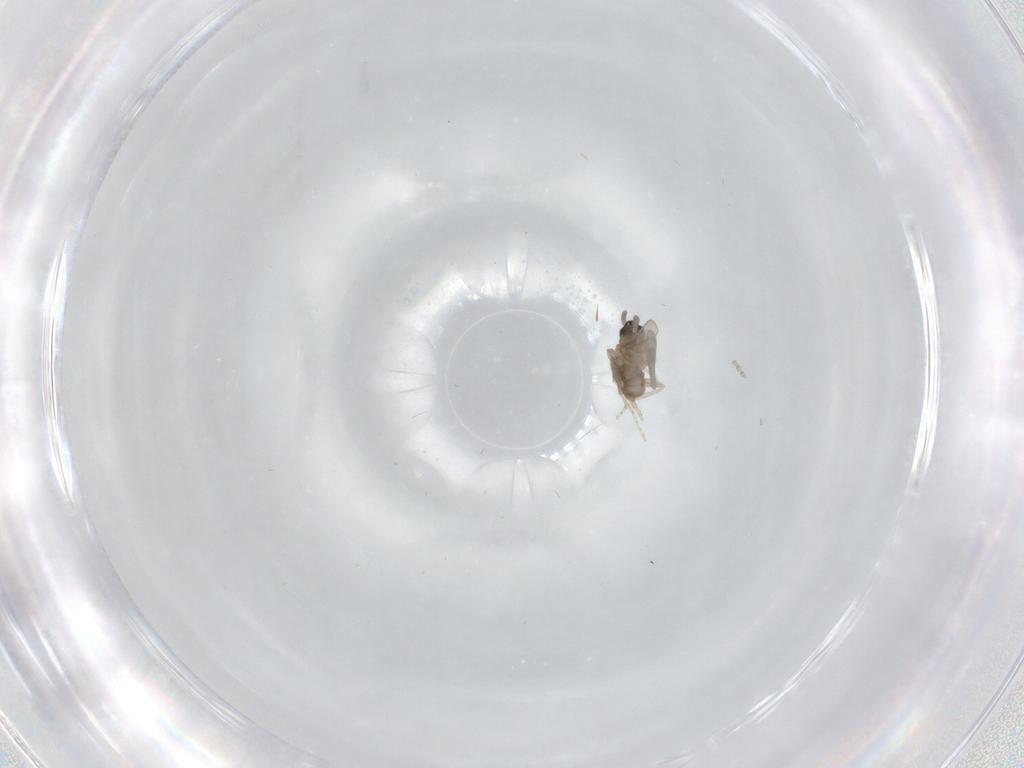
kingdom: Animalia
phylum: Arthropoda
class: Insecta
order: Diptera
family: Cecidomyiidae
